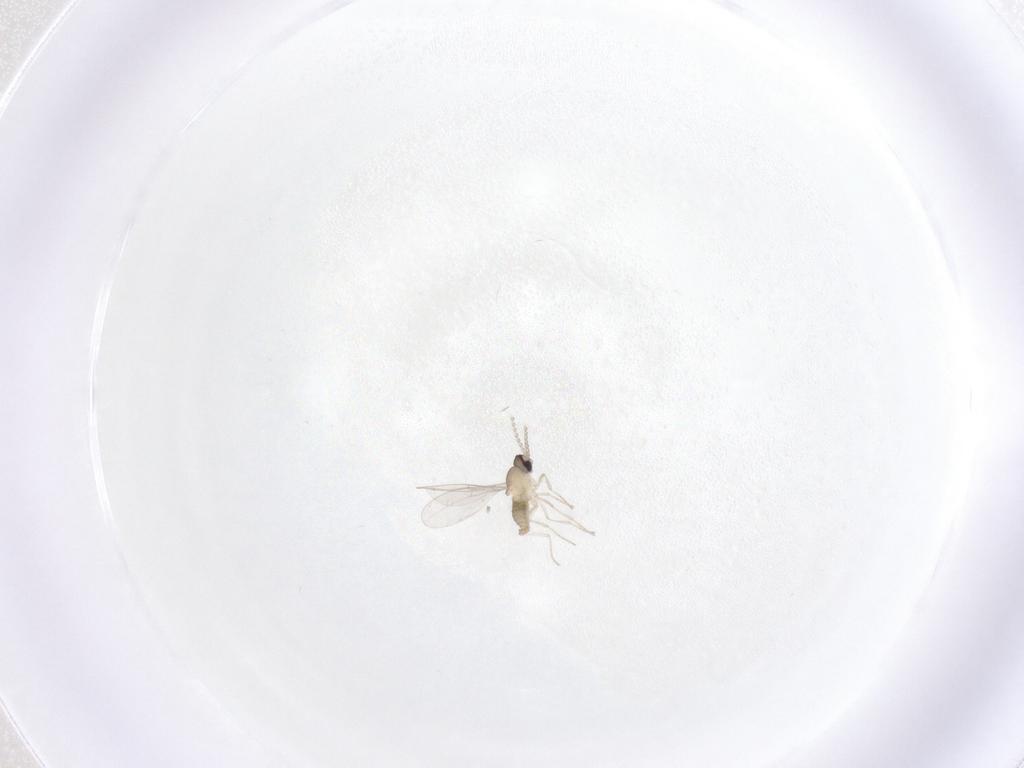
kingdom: Animalia
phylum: Arthropoda
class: Insecta
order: Diptera
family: Cecidomyiidae
